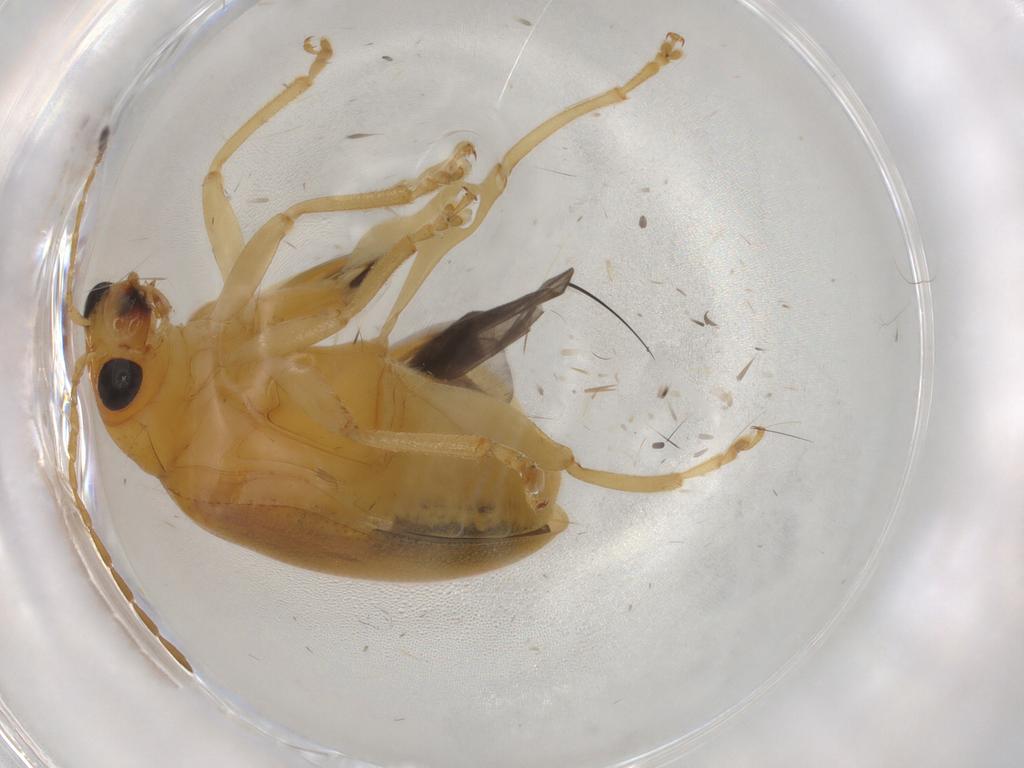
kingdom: Animalia
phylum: Arthropoda
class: Insecta
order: Coleoptera
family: Chrysomelidae
